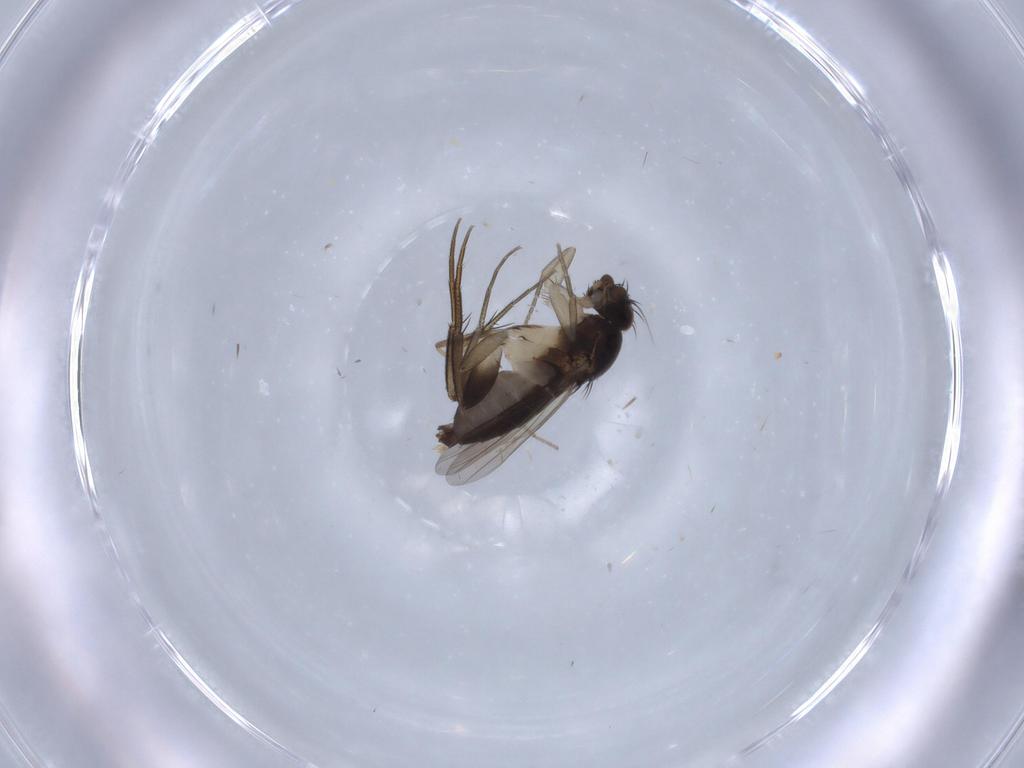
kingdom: Animalia
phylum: Arthropoda
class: Insecta
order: Diptera
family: Phoridae
